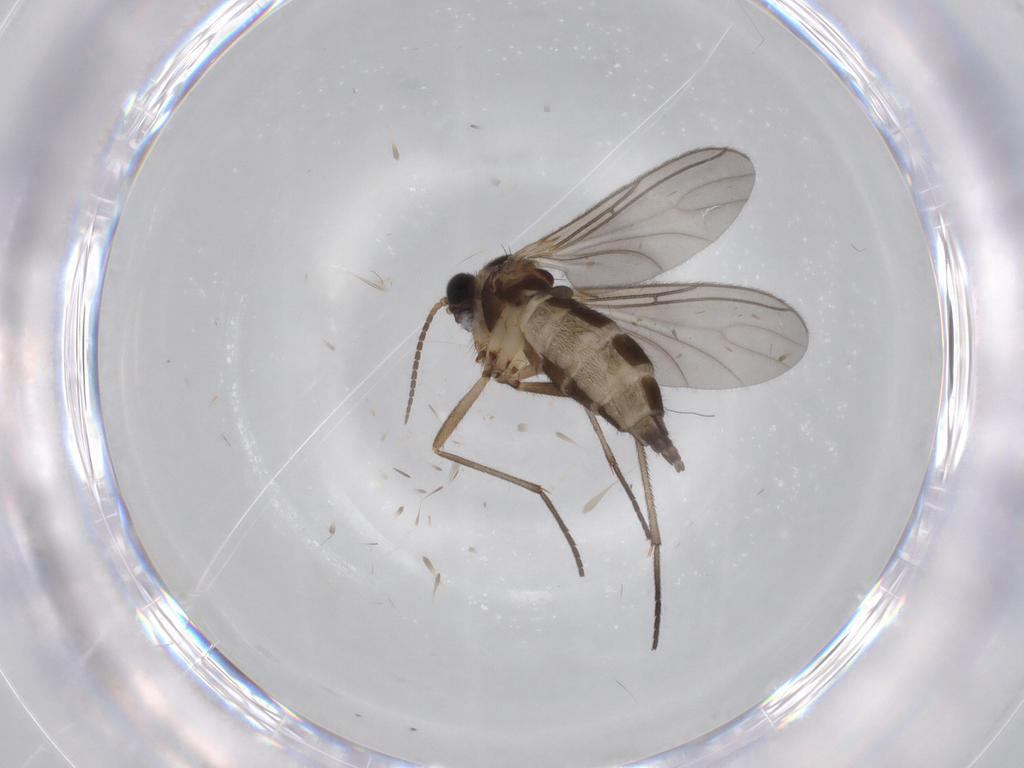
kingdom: Animalia
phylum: Arthropoda
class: Insecta
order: Diptera
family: Sciaridae
